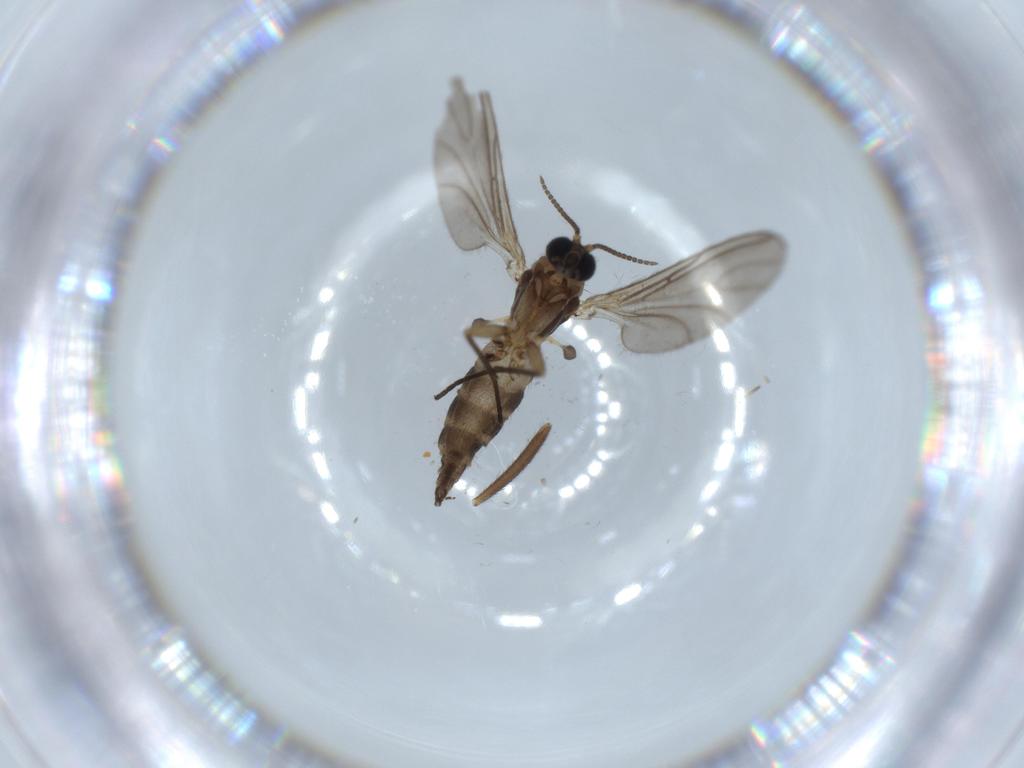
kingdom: Animalia
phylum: Arthropoda
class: Insecta
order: Diptera
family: Sciaridae
